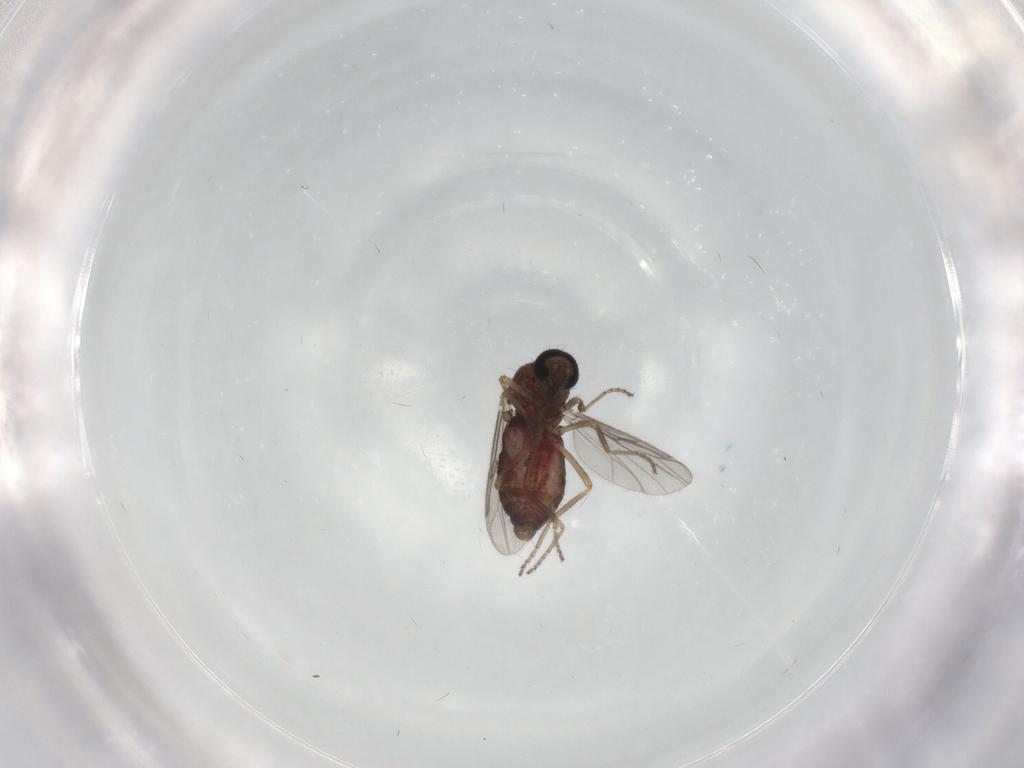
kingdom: Animalia
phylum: Arthropoda
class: Insecta
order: Diptera
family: Ceratopogonidae
